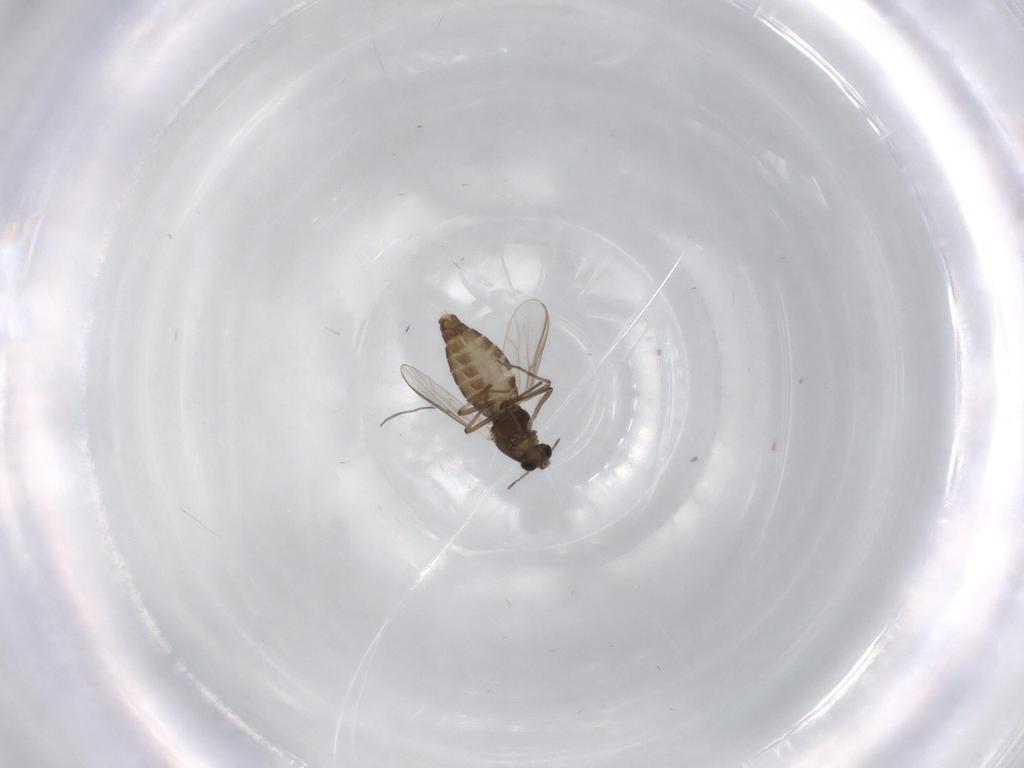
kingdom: Animalia
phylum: Arthropoda
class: Insecta
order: Diptera
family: Chironomidae
